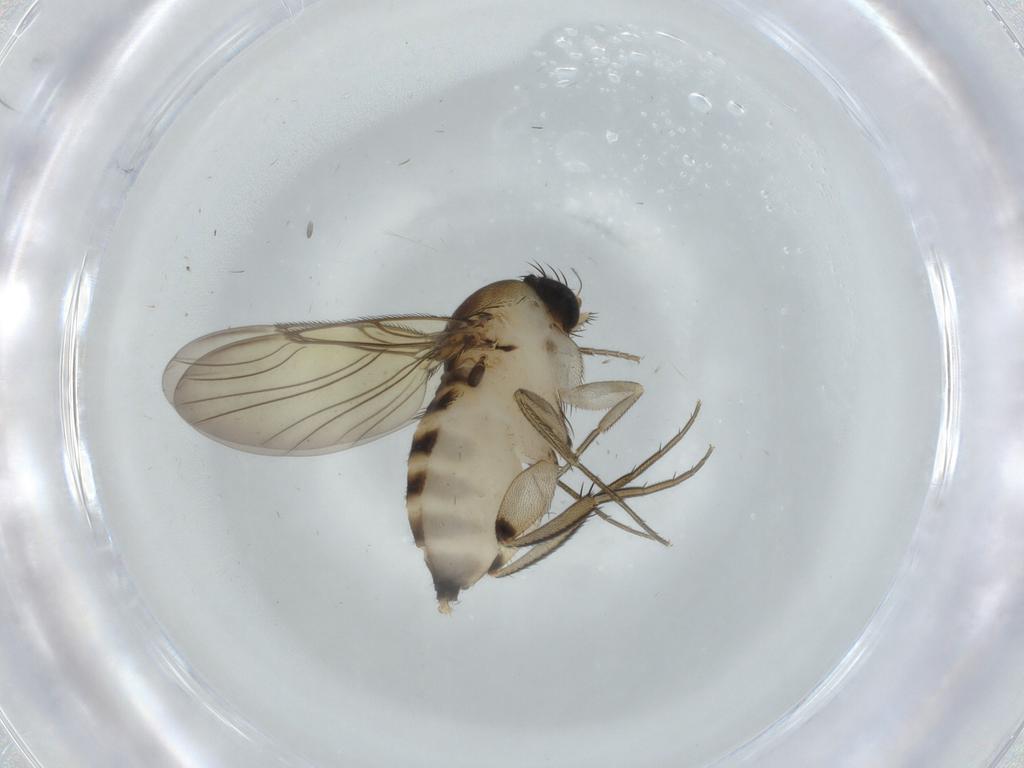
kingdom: Animalia
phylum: Arthropoda
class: Insecta
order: Diptera
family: Phoridae
